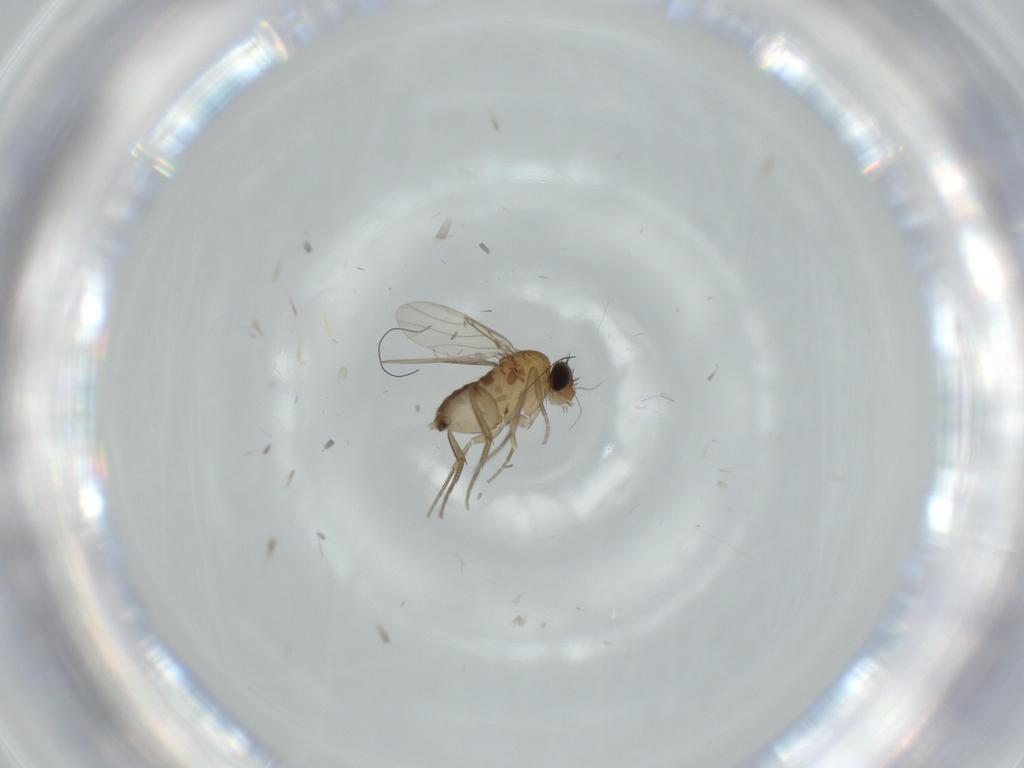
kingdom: Animalia
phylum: Arthropoda
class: Insecta
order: Diptera
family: Phoridae
